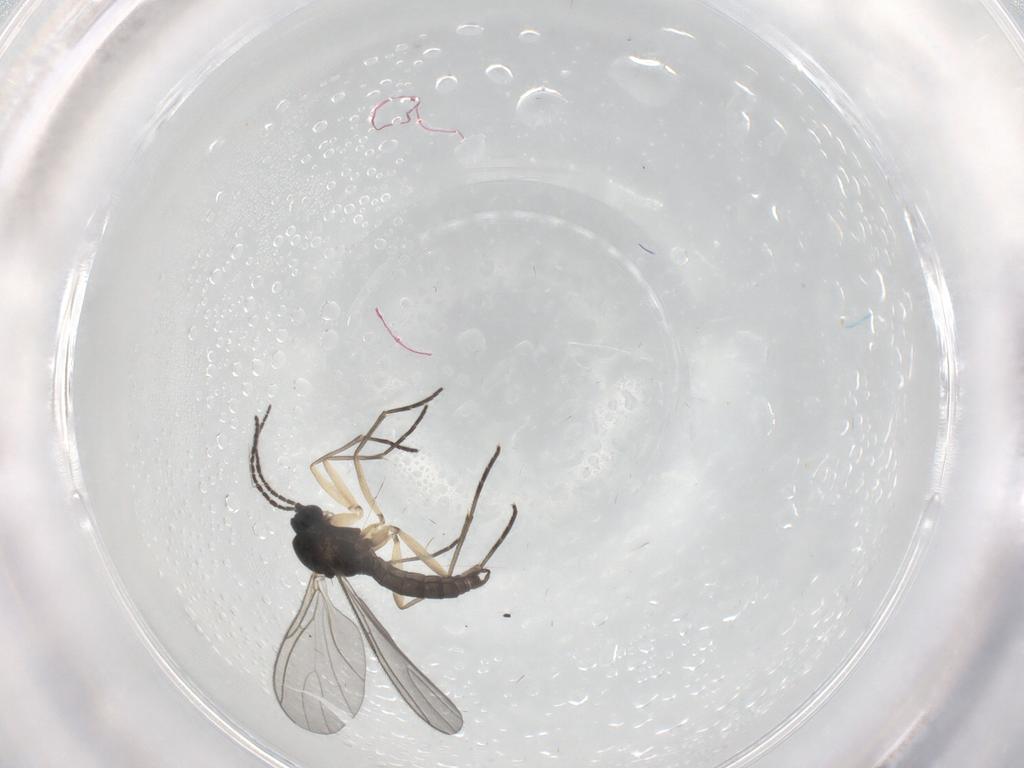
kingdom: Animalia
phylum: Arthropoda
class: Insecta
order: Diptera
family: Sciaridae
